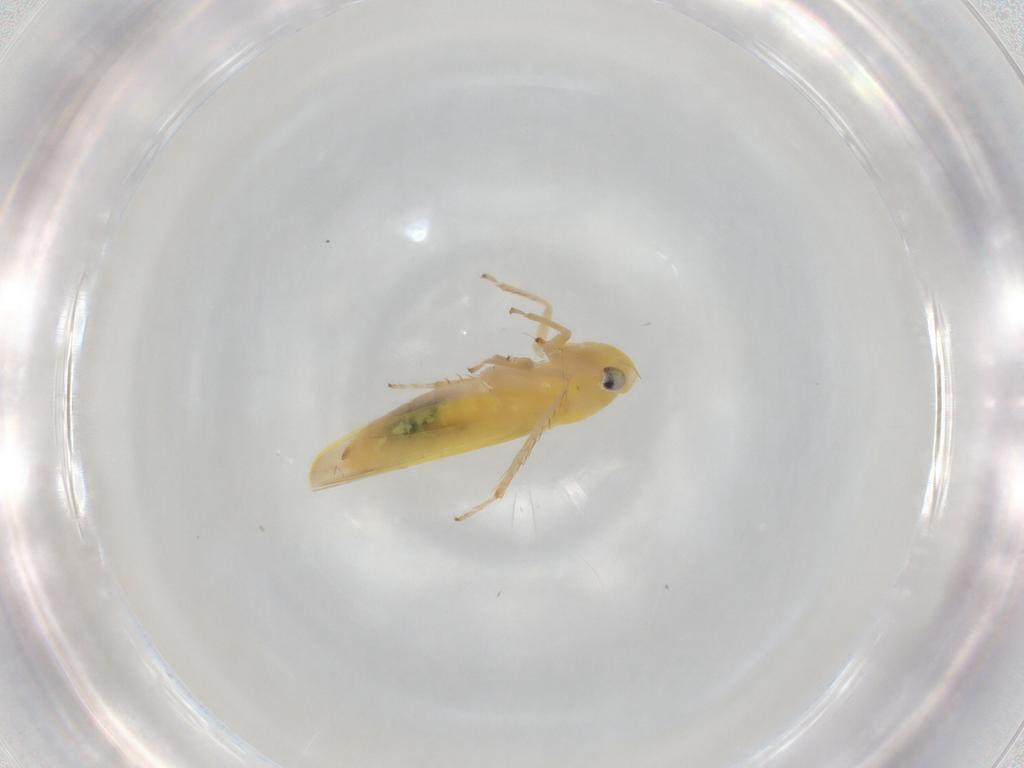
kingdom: Animalia
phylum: Arthropoda
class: Insecta
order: Hemiptera
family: Cicadellidae
